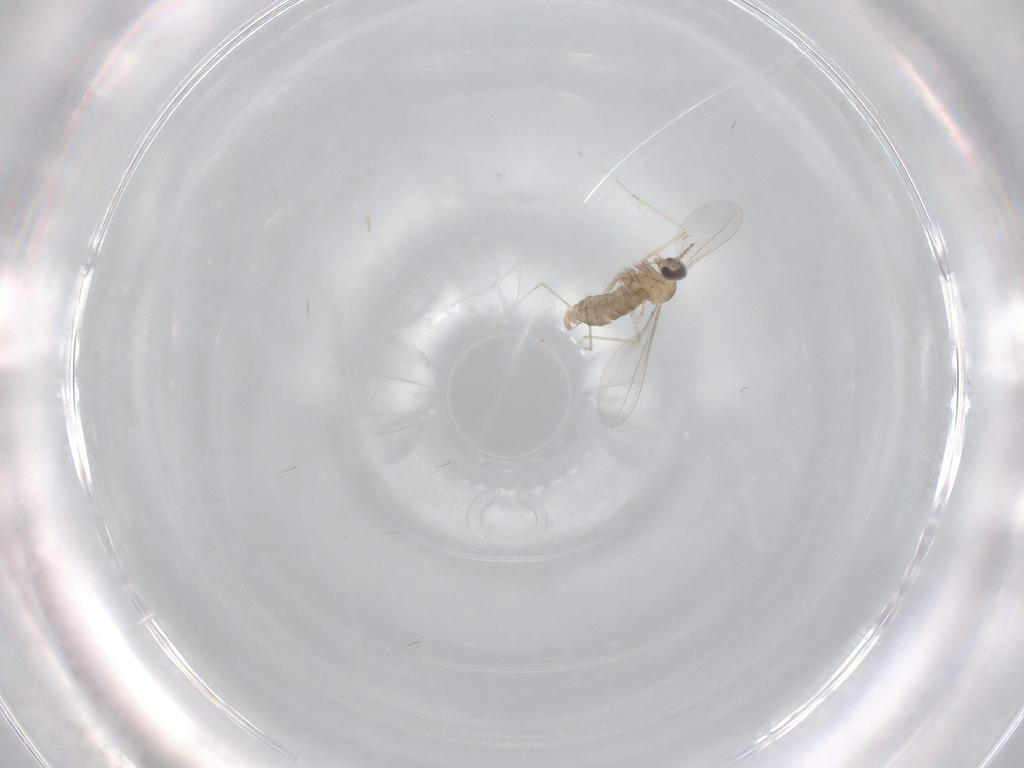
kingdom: Animalia
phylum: Arthropoda
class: Insecta
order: Diptera
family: Cecidomyiidae
